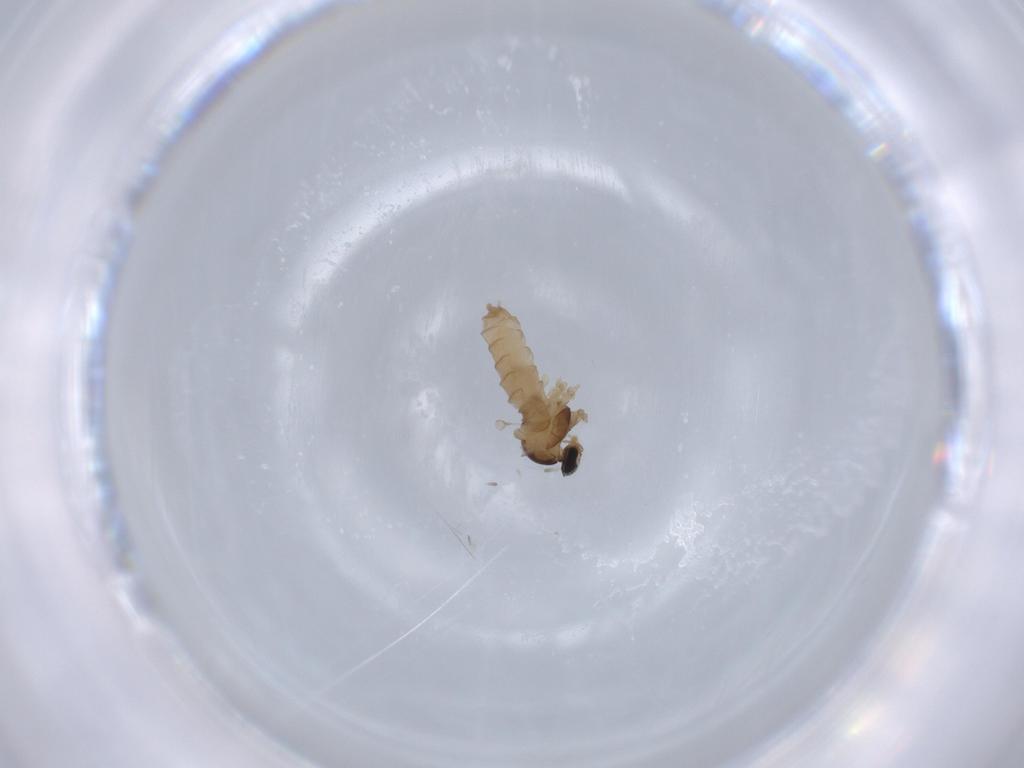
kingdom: Animalia
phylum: Arthropoda
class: Insecta
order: Diptera
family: Cecidomyiidae
